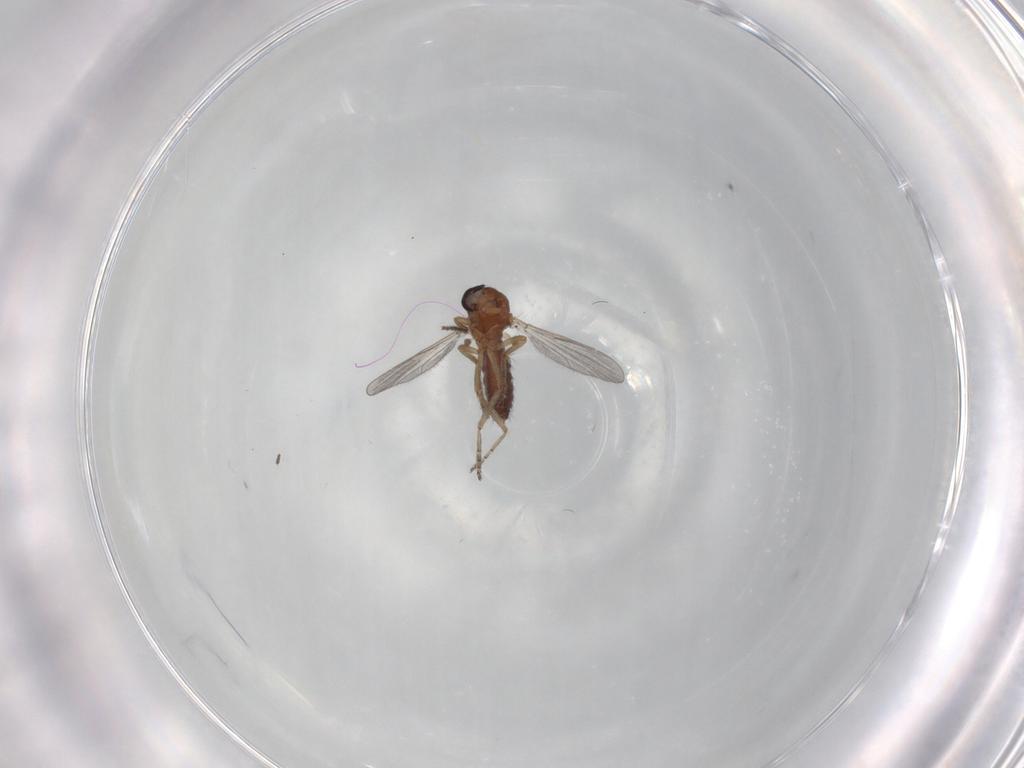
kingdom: Animalia
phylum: Arthropoda
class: Insecta
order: Diptera
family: Ceratopogonidae
